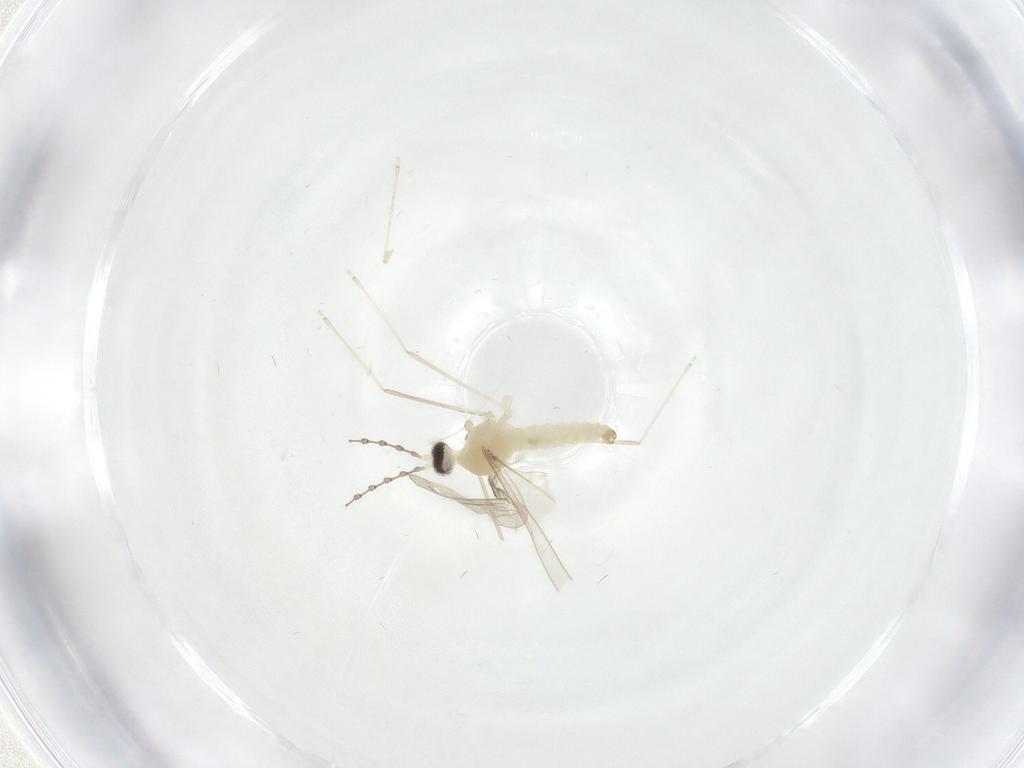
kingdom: Animalia
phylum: Arthropoda
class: Insecta
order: Diptera
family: Cecidomyiidae
